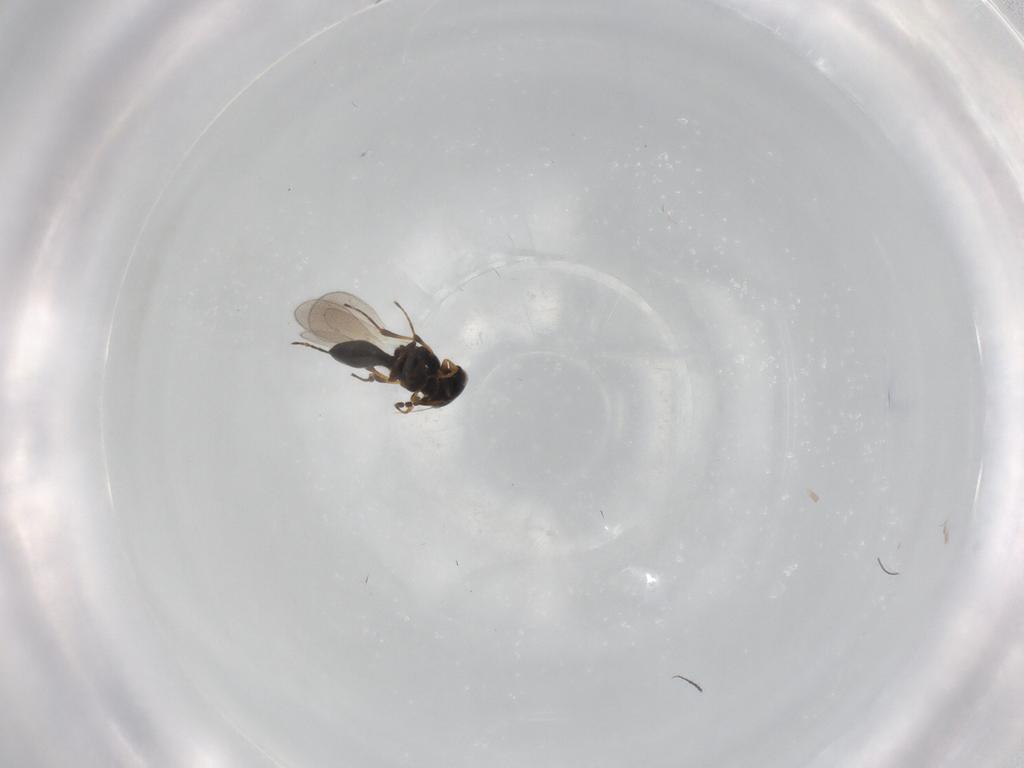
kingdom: Animalia
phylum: Arthropoda
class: Insecta
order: Hymenoptera
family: Platygastridae
